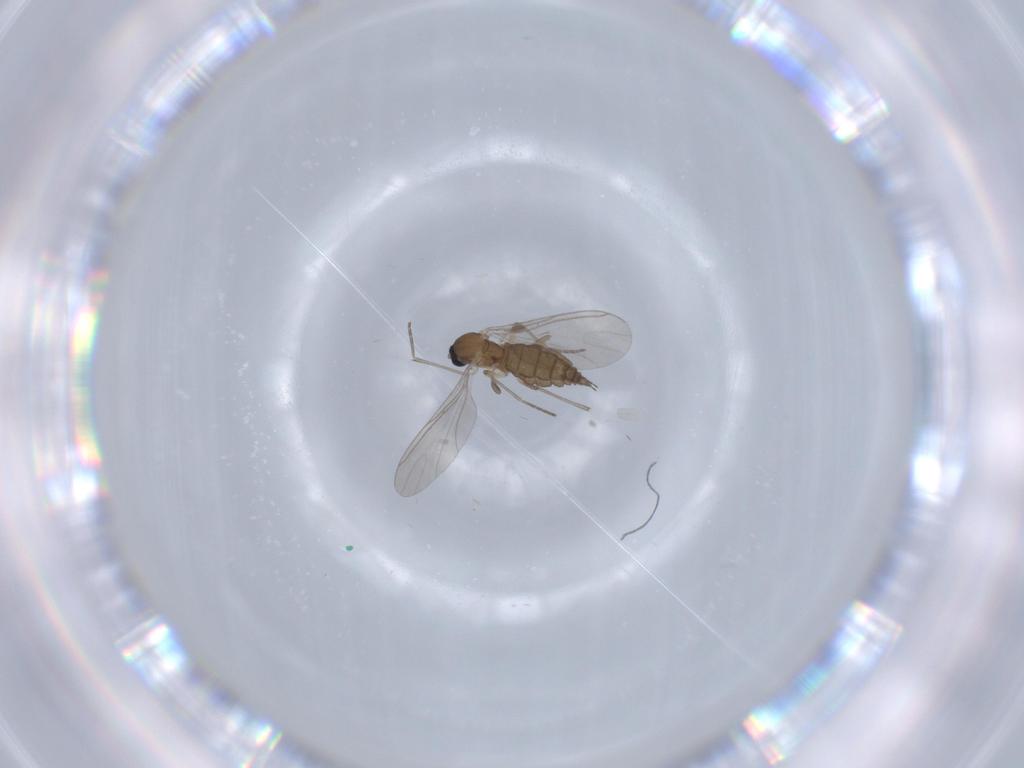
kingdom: Animalia
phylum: Arthropoda
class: Insecta
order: Diptera
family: Sciaridae
